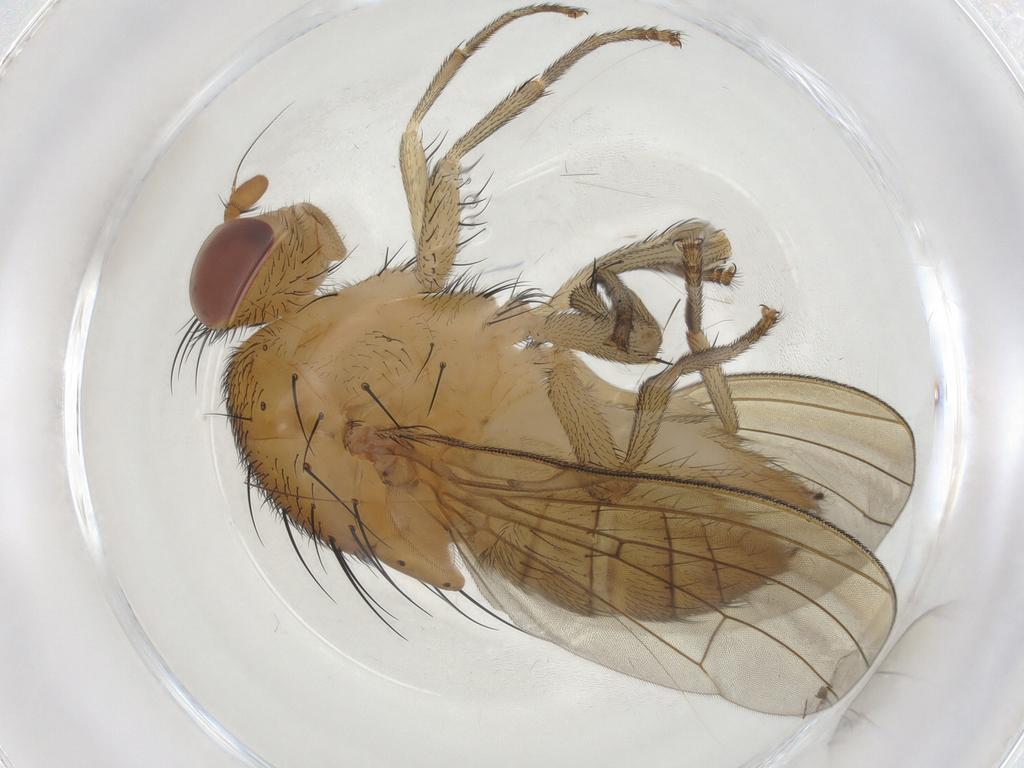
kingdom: Animalia
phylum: Arthropoda
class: Insecta
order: Diptera
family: Chironomidae
